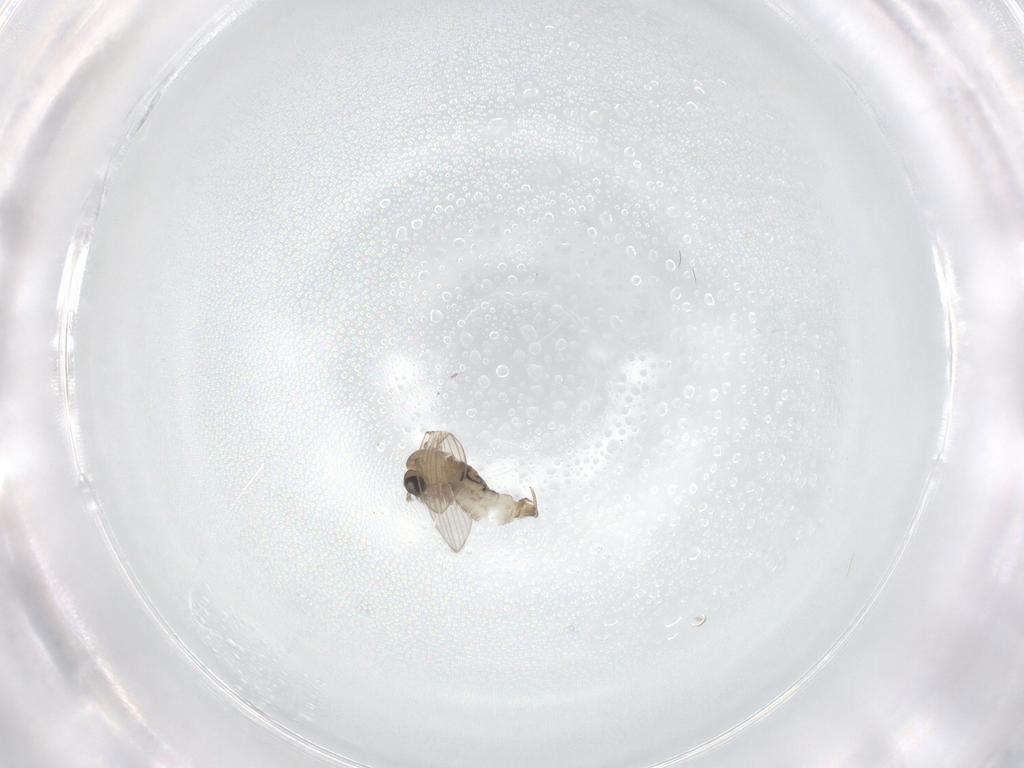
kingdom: Animalia
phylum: Arthropoda
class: Insecta
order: Diptera
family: Psychodidae
